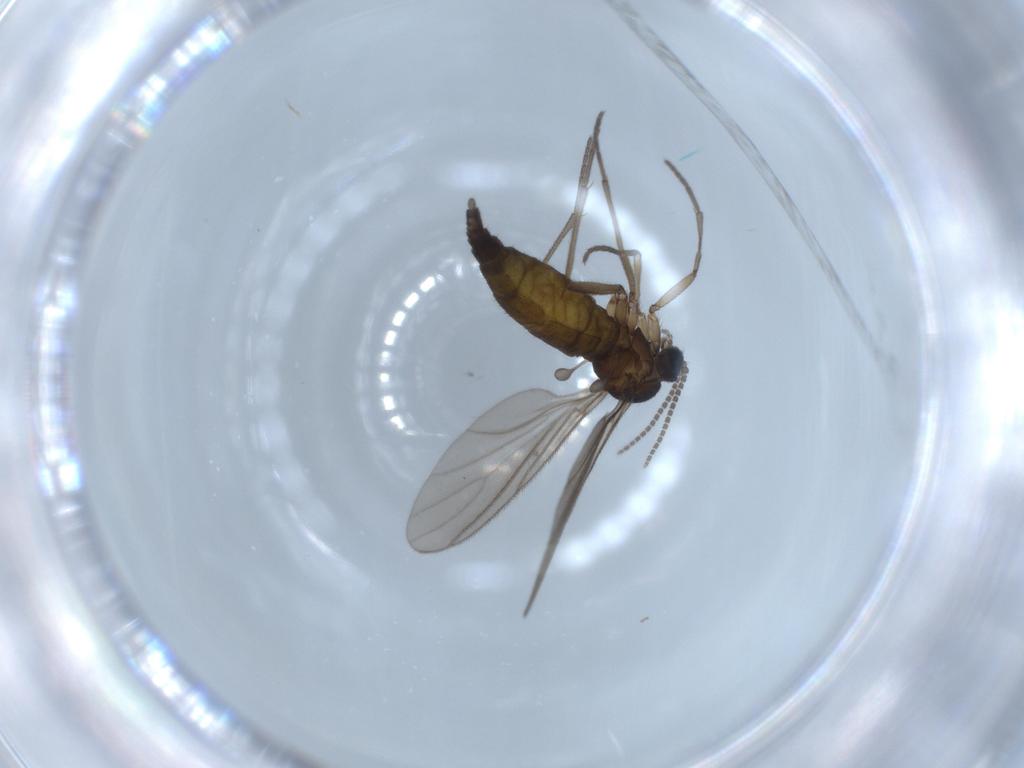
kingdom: Animalia
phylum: Arthropoda
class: Insecta
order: Diptera
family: Sciaridae
